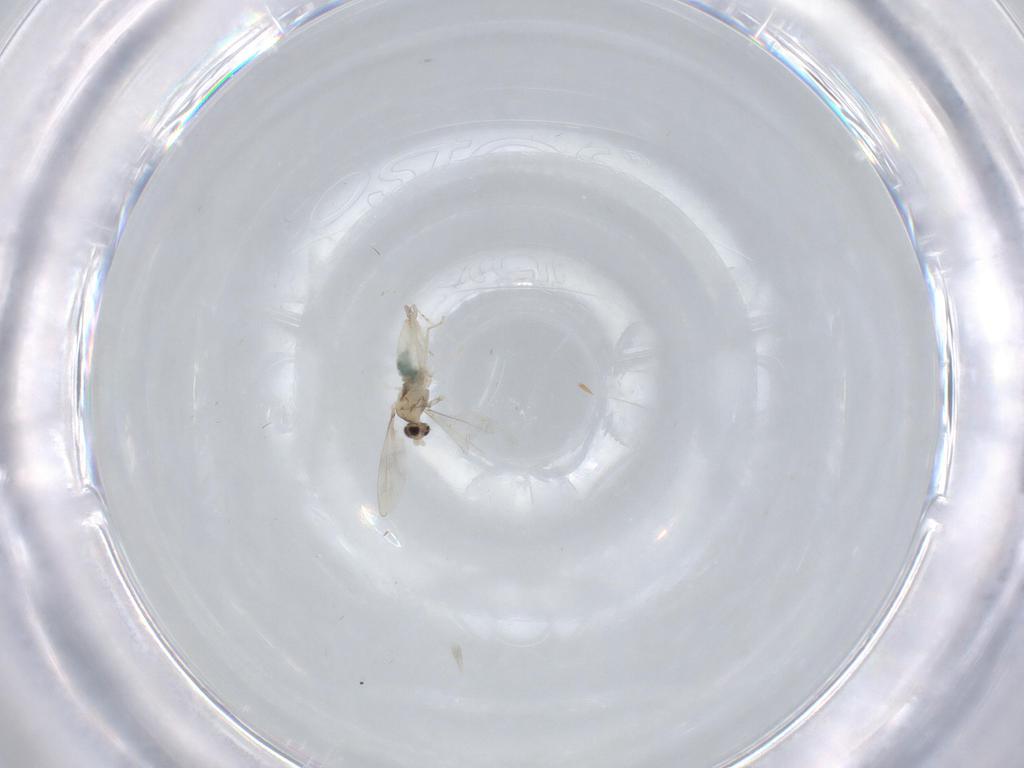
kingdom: Animalia
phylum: Arthropoda
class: Insecta
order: Diptera
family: Cecidomyiidae
